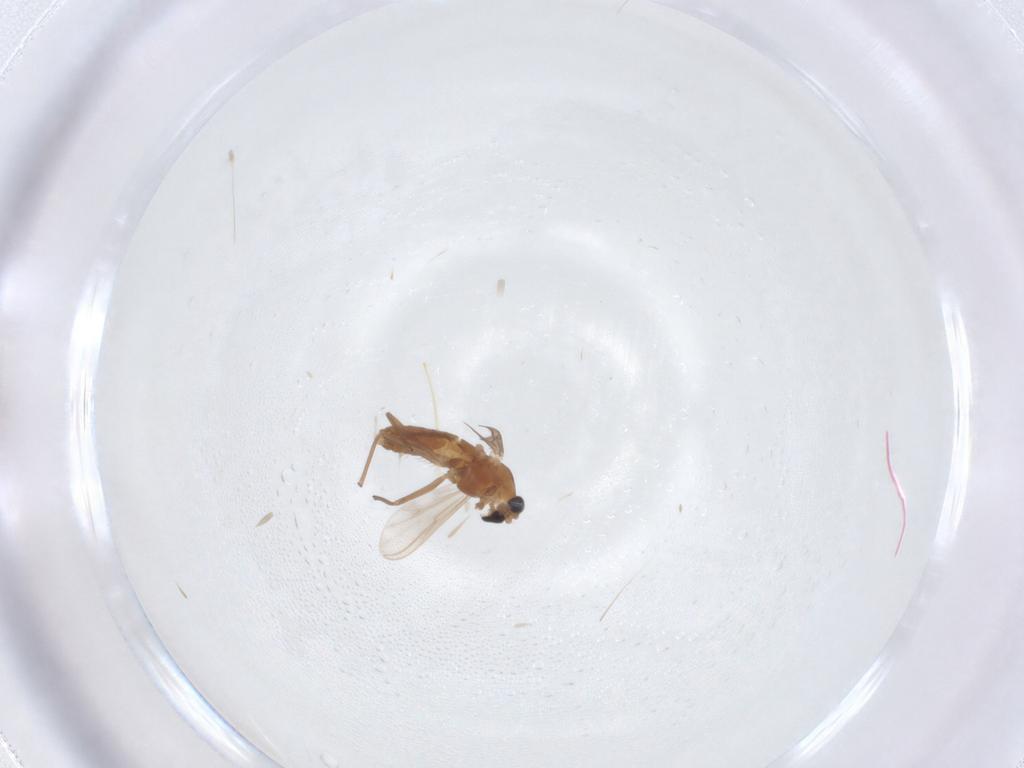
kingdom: Animalia
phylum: Arthropoda
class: Insecta
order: Diptera
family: Chironomidae
